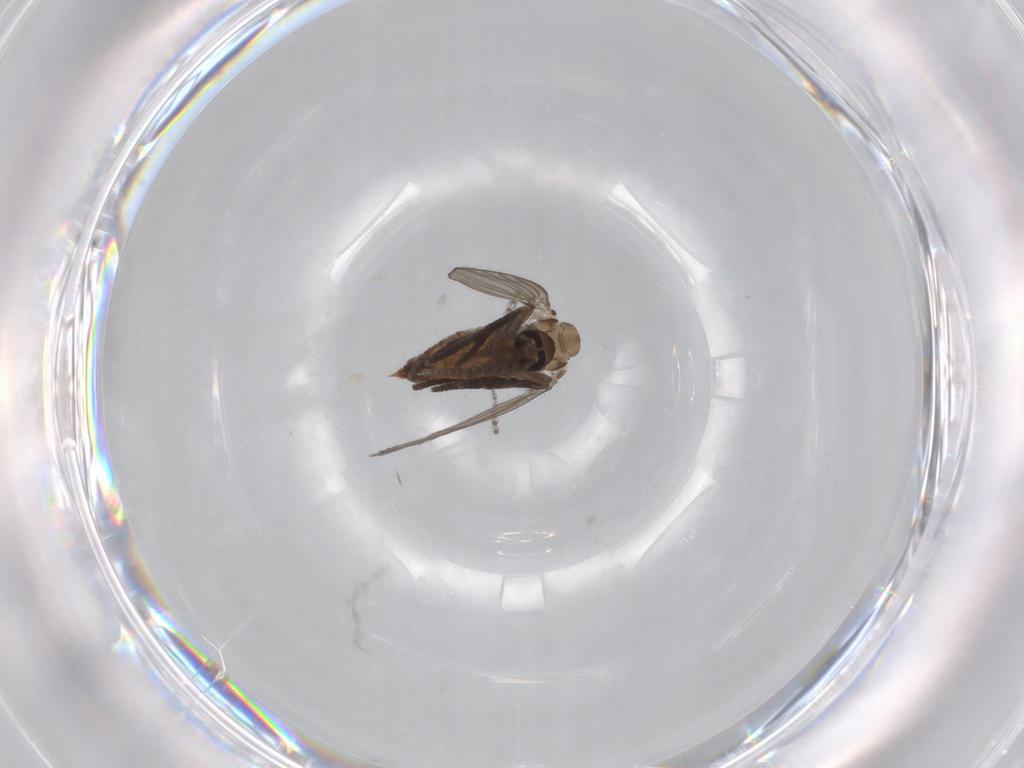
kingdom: Animalia
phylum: Arthropoda
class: Insecta
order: Diptera
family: Psychodidae
